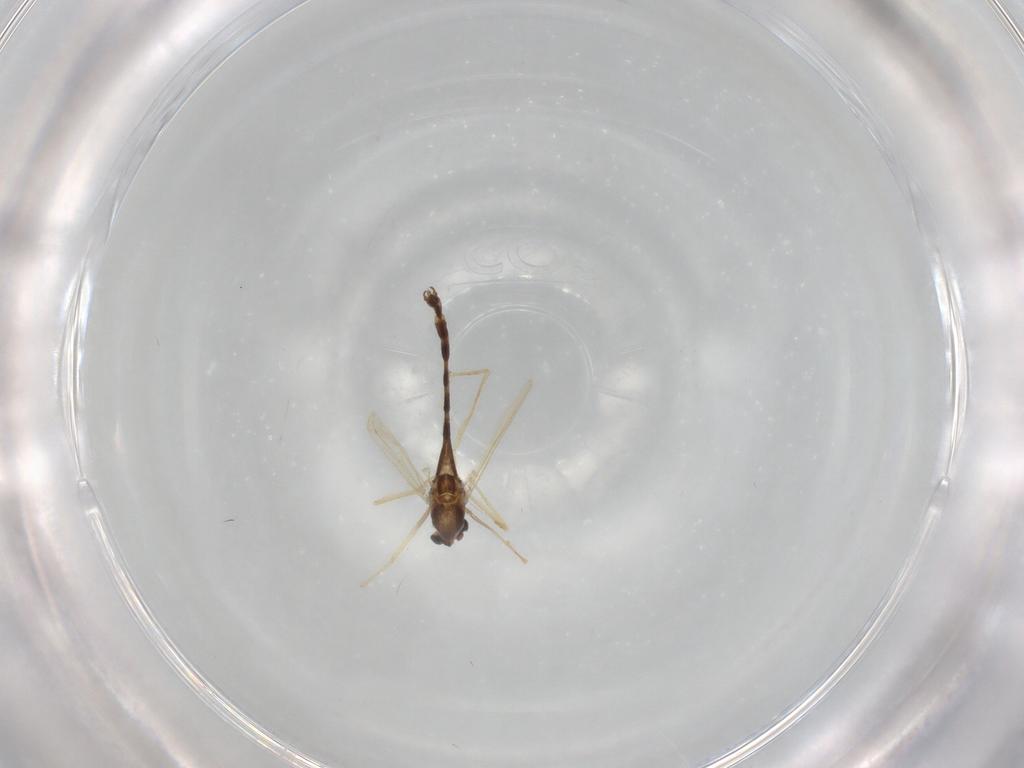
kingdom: Animalia
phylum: Arthropoda
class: Insecta
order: Diptera
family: Chironomidae
